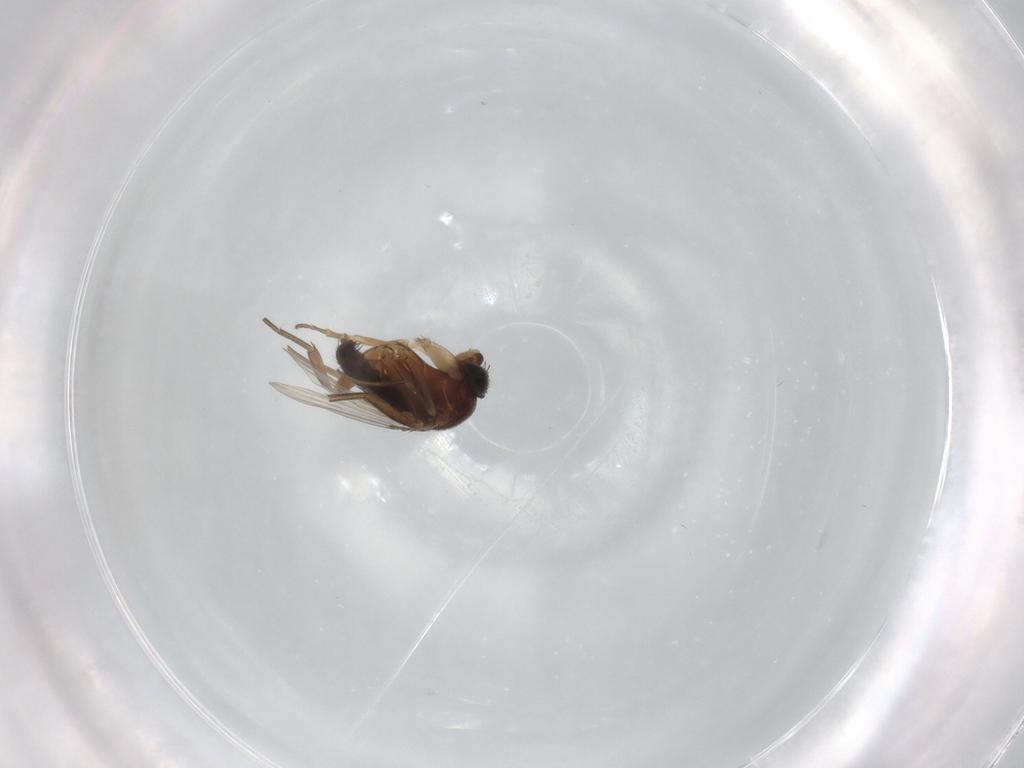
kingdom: Animalia
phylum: Arthropoda
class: Insecta
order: Diptera
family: Phoridae
